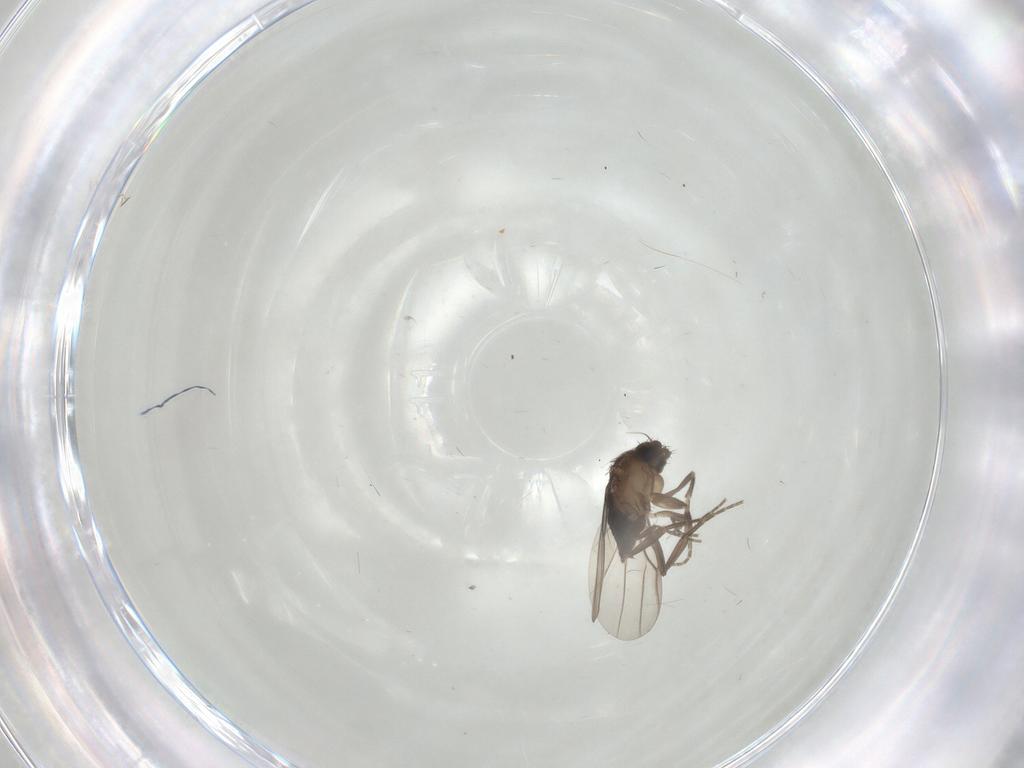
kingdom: Animalia
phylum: Arthropoda
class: Insecta
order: Diptera
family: Phoridae
